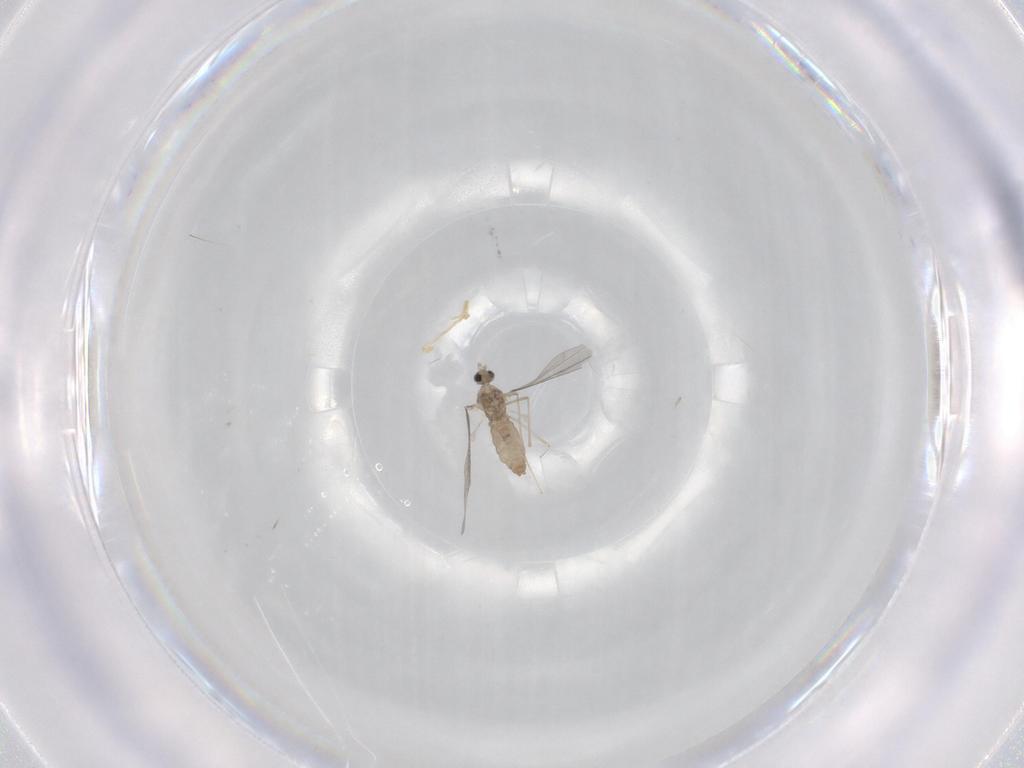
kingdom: Animalia
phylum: Arthropoda
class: Insecta
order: Diptera
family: Cecidomyiidae
